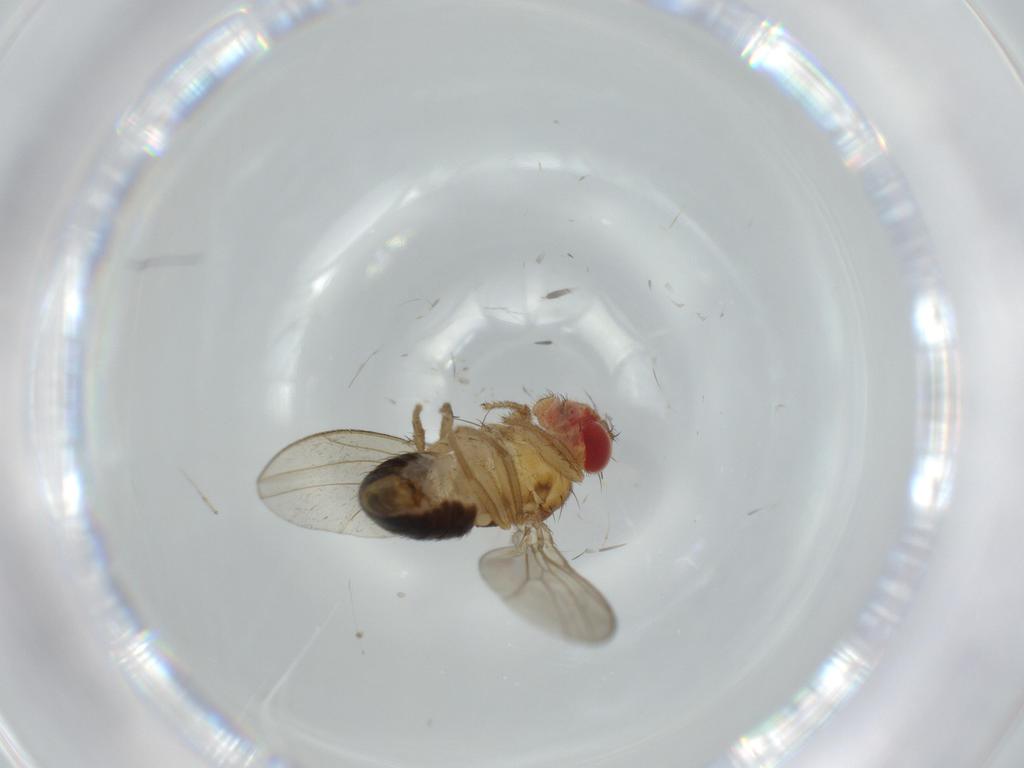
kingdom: Animalia
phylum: Arthropoda
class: Insecta
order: Diptera
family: Drosophilidae
